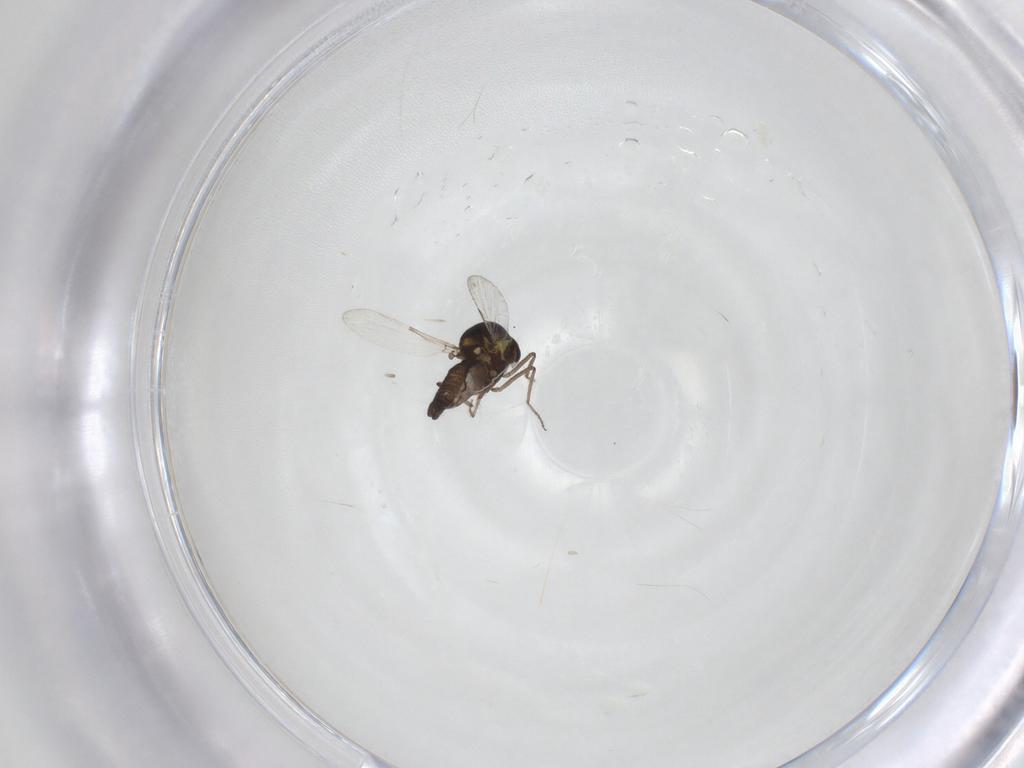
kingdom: Animalia
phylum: Arthropoda
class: Insecta
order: Diptera
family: Ceratopogonidae
